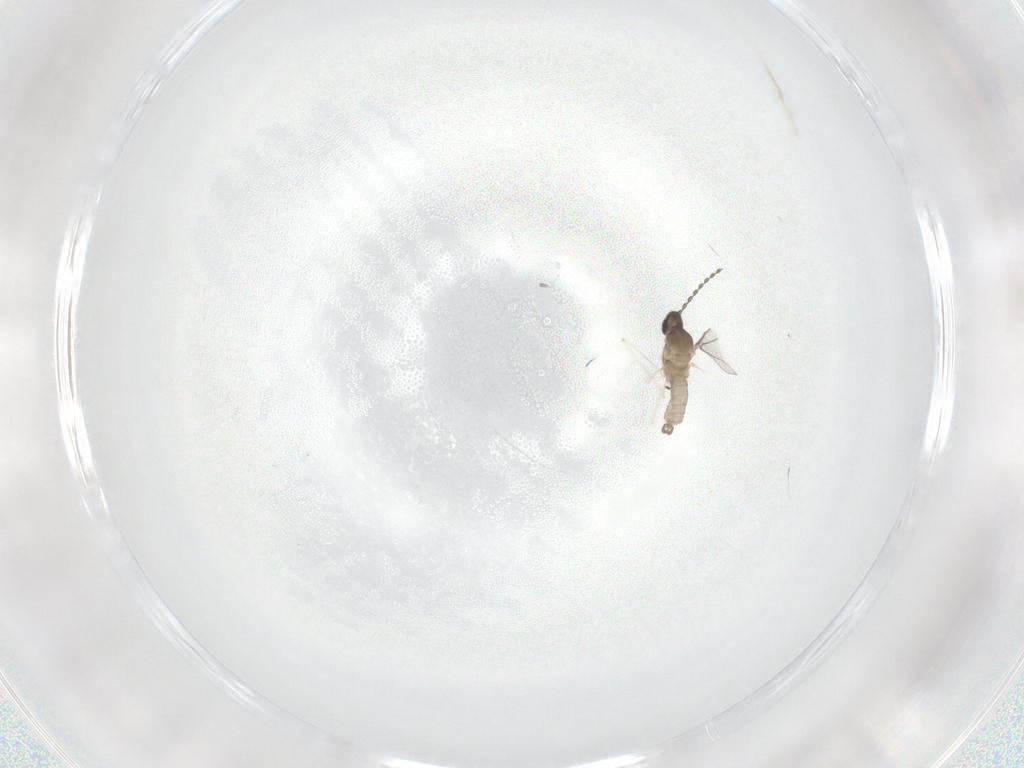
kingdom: Animalia
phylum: Arthropoda
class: Insecta
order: Diptera
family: Cecidomyiidae
